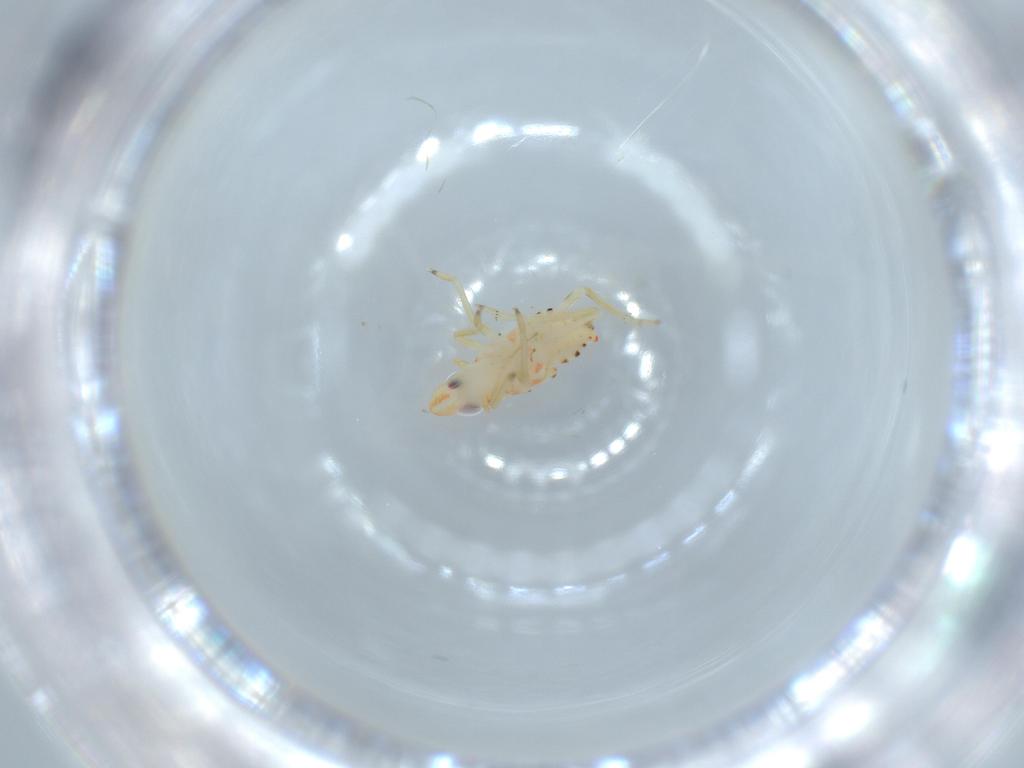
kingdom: Animalia
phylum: Arthropoda
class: Insecta
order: Hemiptera
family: Tropiduchidae
